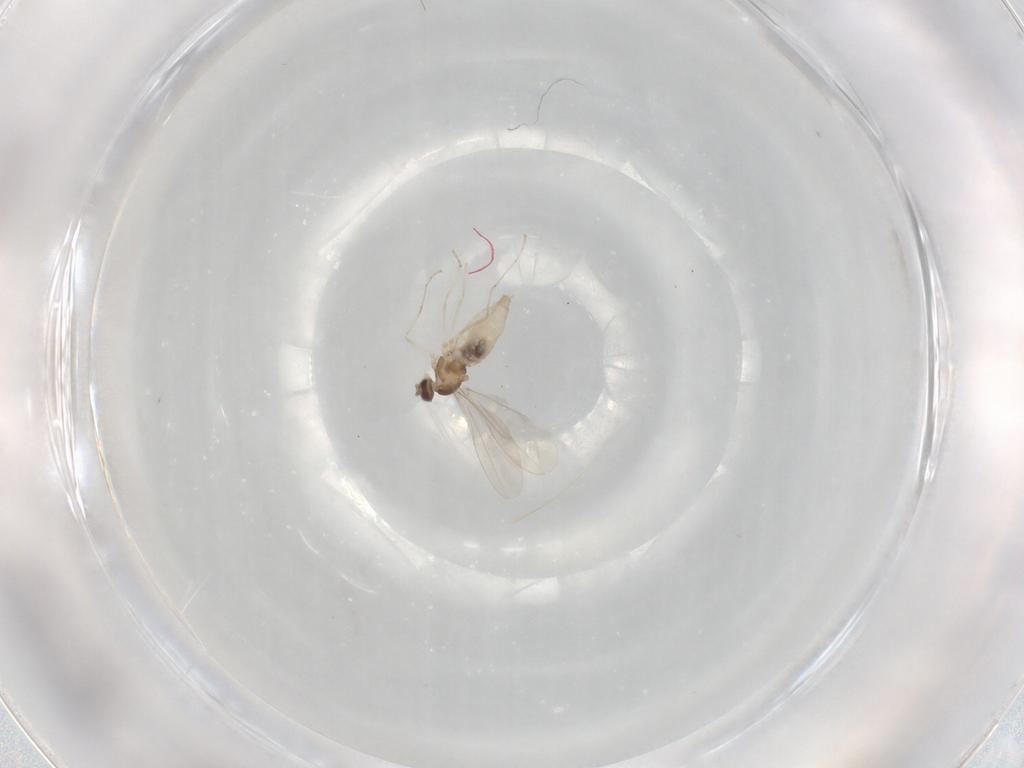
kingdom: Animalia
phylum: Arthropoda
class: Insecta
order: Diptera
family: Cecidomyiidae
